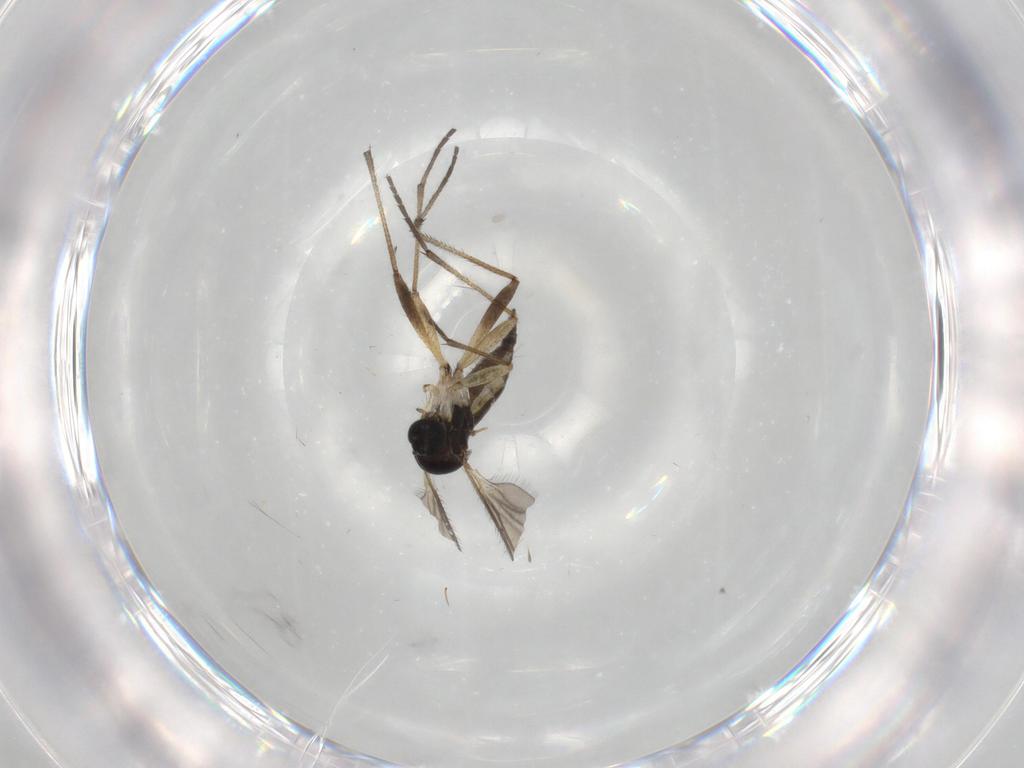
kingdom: Animalia
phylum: Arthropoda
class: Insecta
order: Diptera
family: Sciaridae
